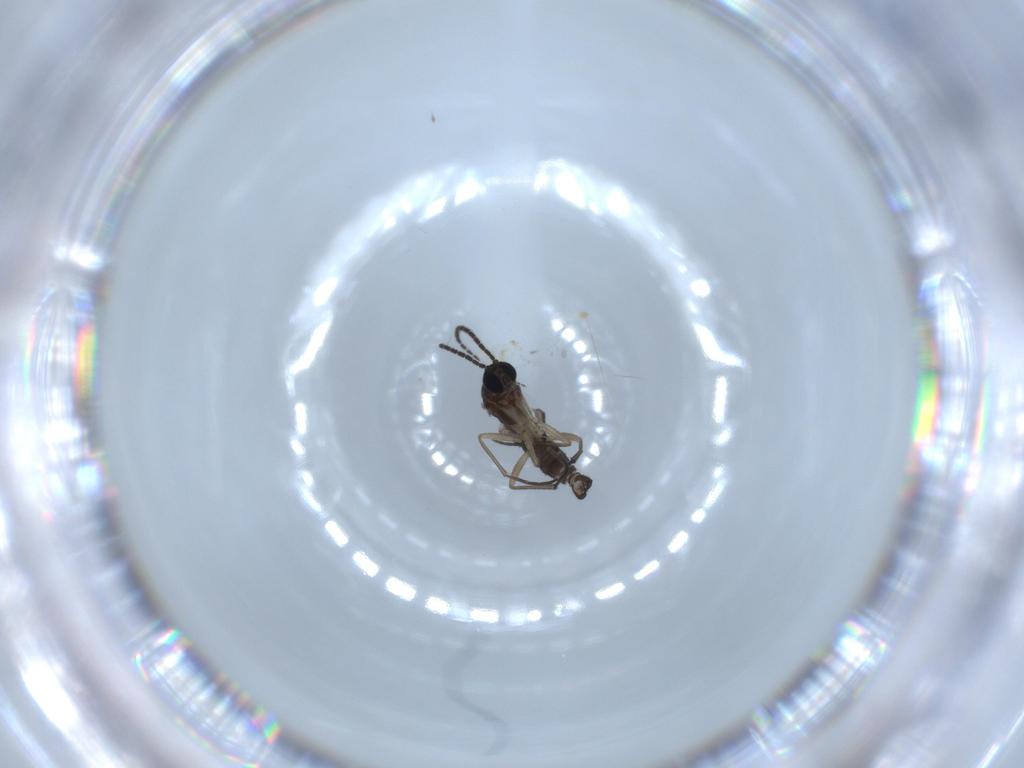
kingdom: Animalia
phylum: Arthropoda
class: Insecta
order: Diptera
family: Sciaridae
